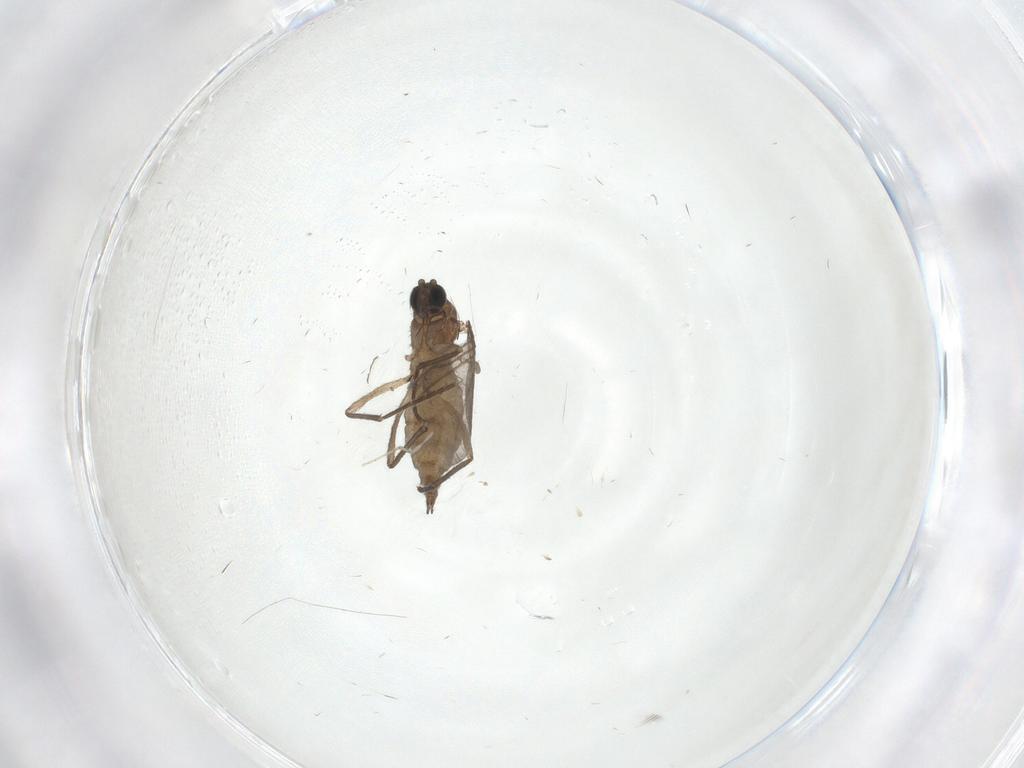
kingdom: Animalia
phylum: Arthropoda
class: Insecta
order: Diptera
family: Sciaridae
